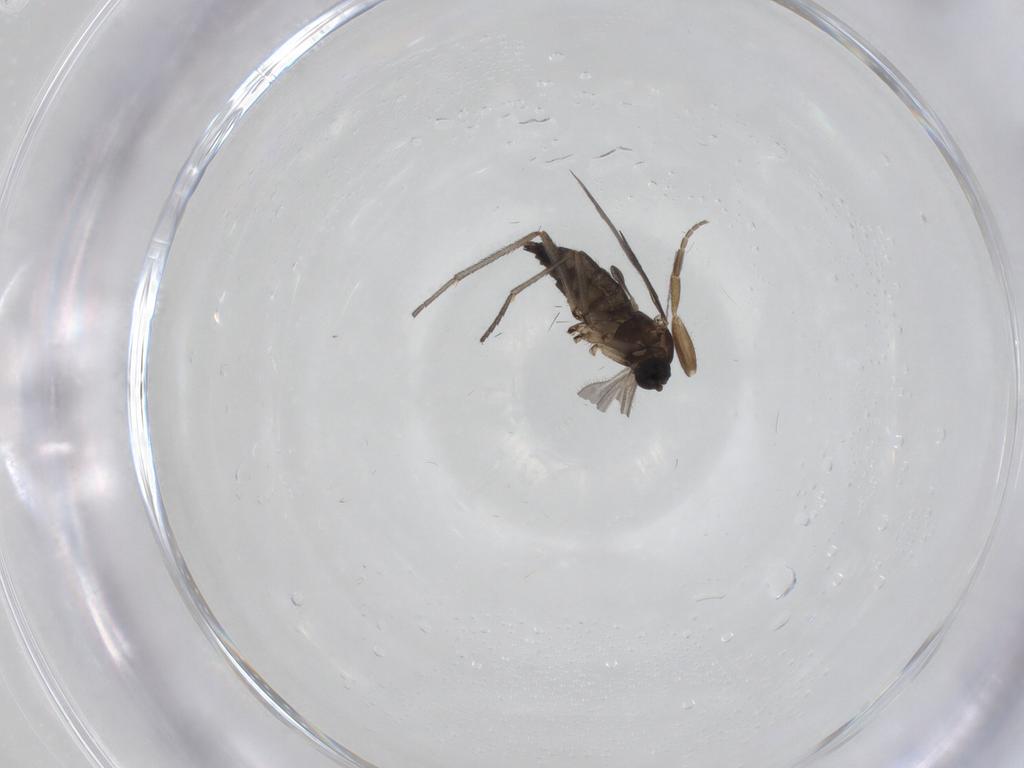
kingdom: Animalia
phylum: Arthropoda
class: Insecta
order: Diptera
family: Sciaridae
